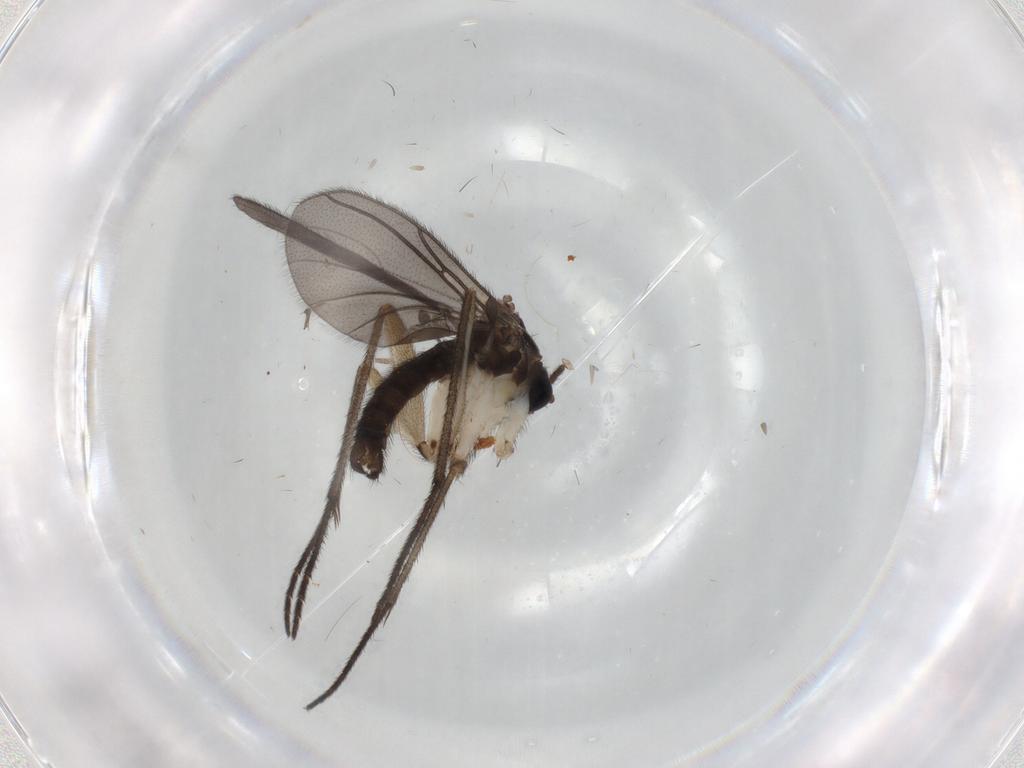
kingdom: Animalia
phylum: Arthropoda
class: Insecta
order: Diptera
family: Sciaridae
